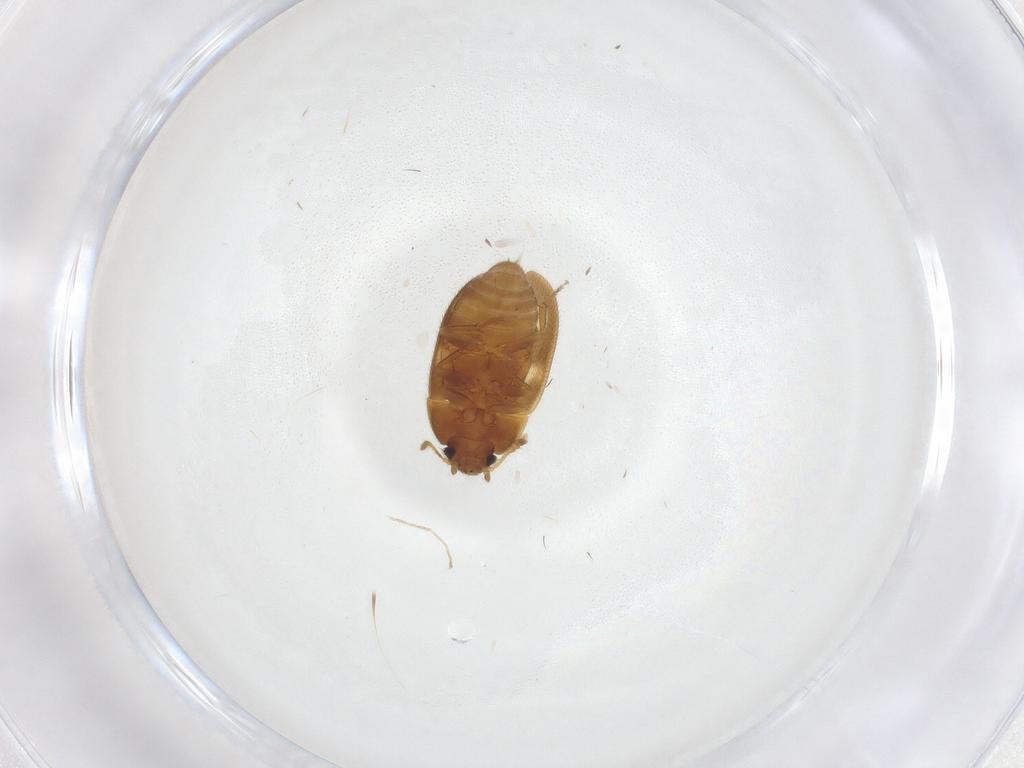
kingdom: Animalia
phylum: Arthropoda
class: Insecta
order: Coleoptera
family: Mycetophagidae
